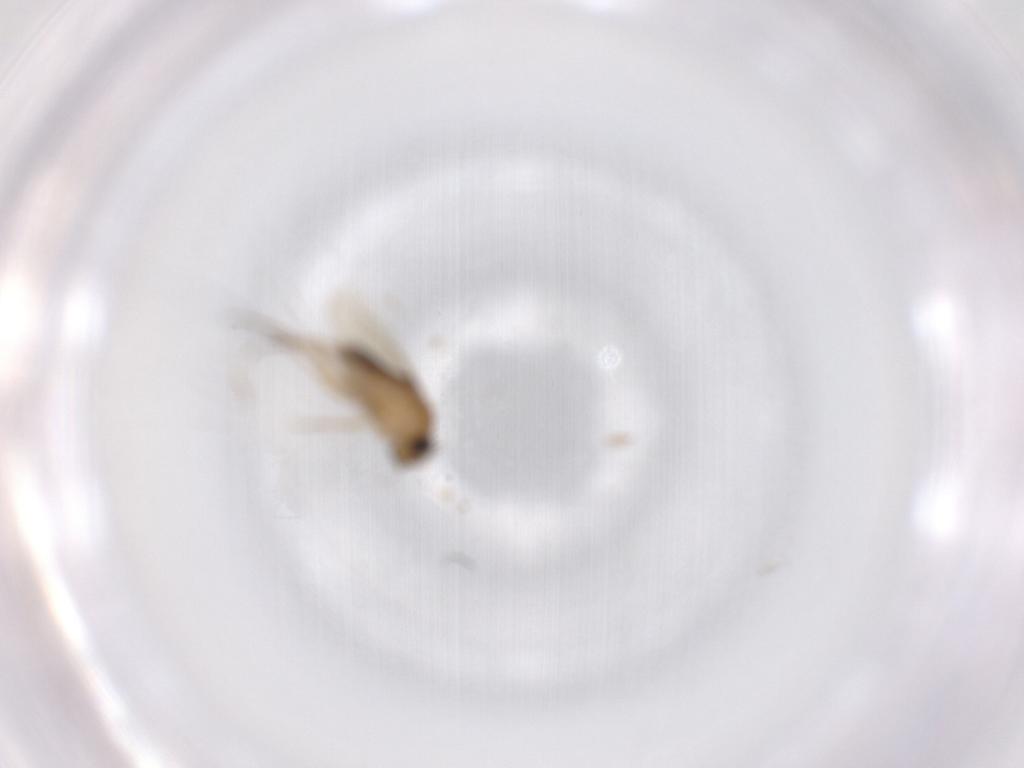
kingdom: Animalia
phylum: Arthropoda
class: Insecta
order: Diptera
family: Phoridae
